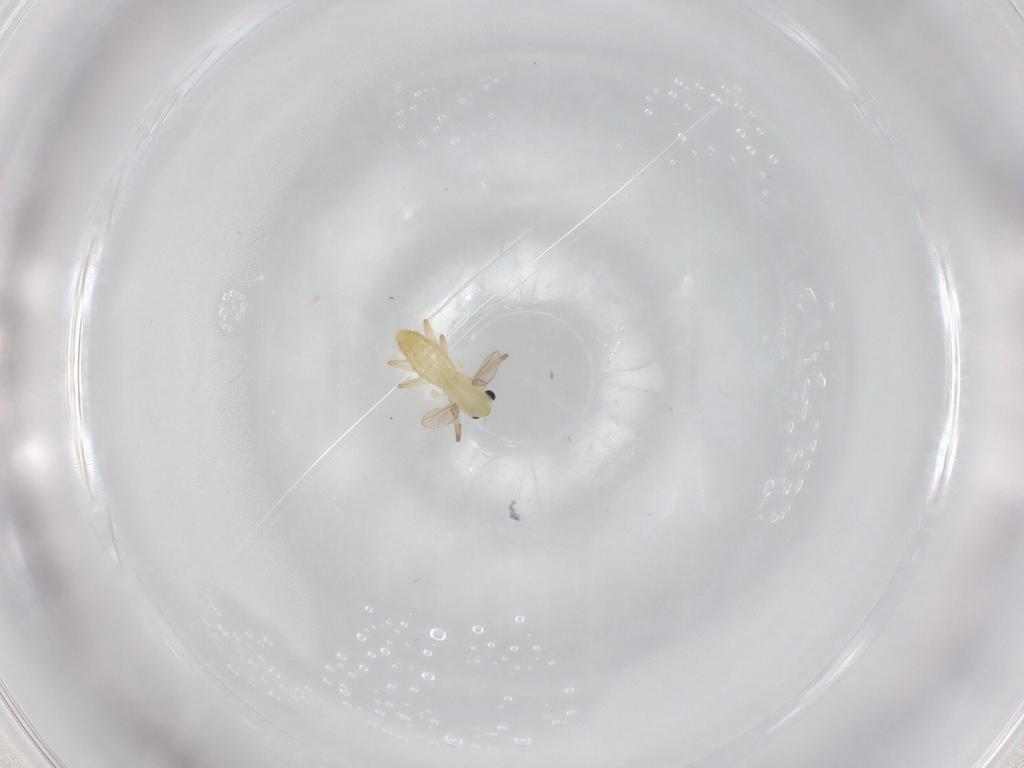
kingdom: Animalia
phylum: Arthropoda
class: Insecta
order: Diptera
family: Chironomidae
